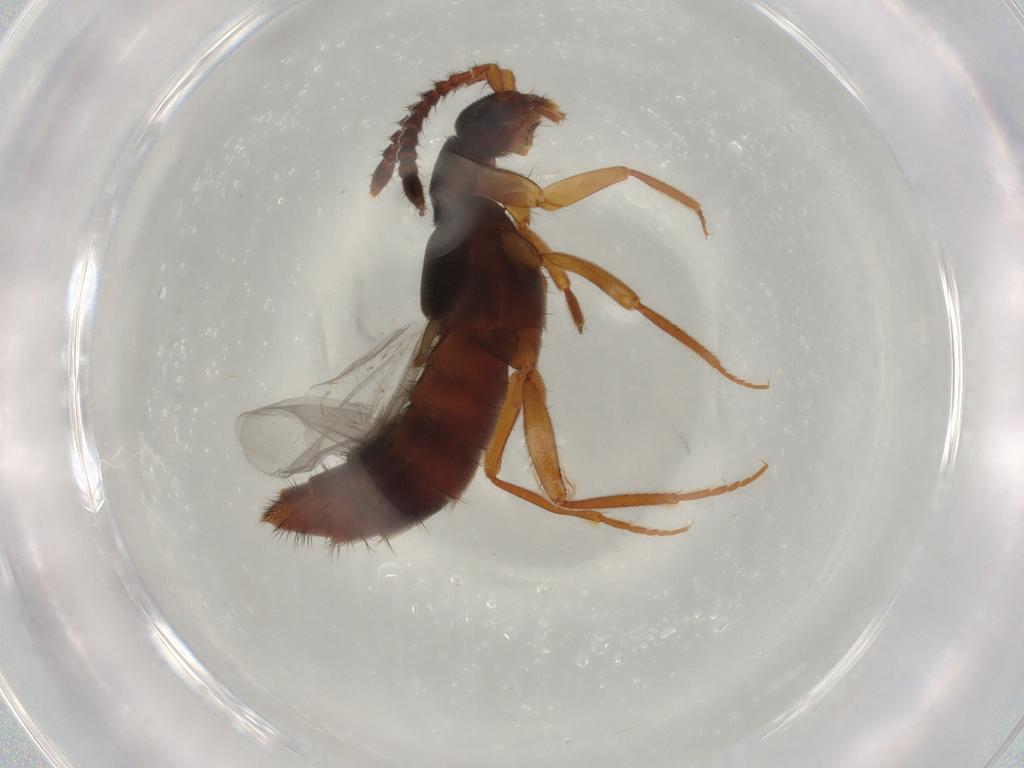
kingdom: Animalia
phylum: Arthropoda
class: Insecta
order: Coleoptera
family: Staphylinidae
